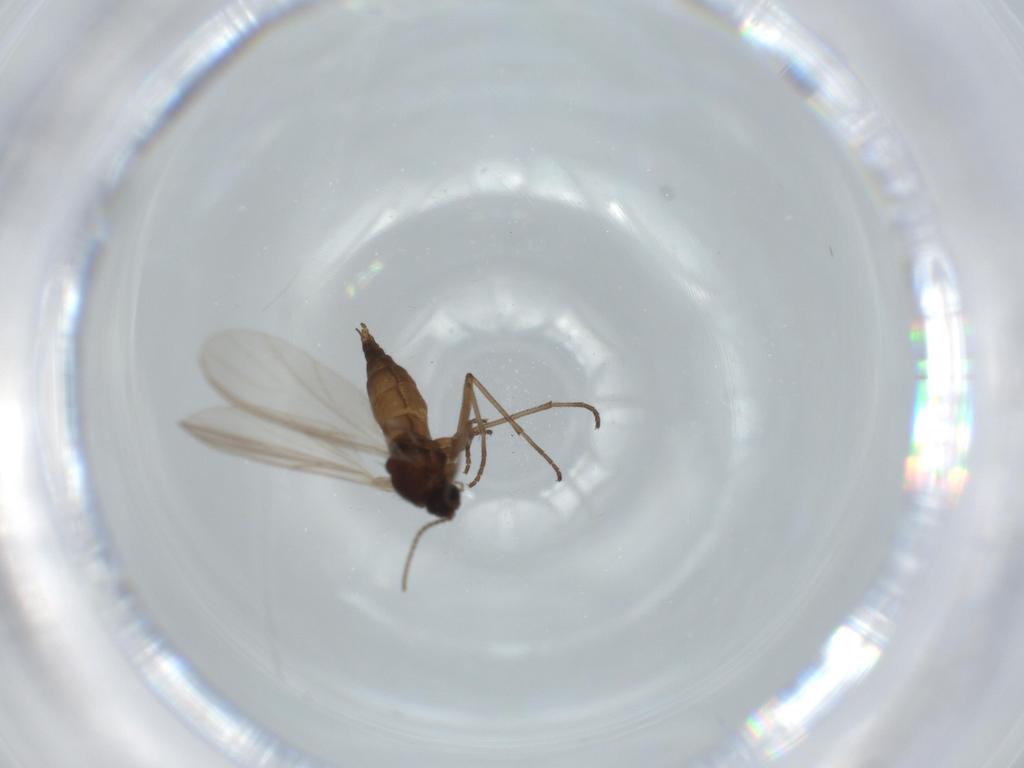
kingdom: Animalia
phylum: Arthropoda
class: Insecta
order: Diptera
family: Sciaridae
